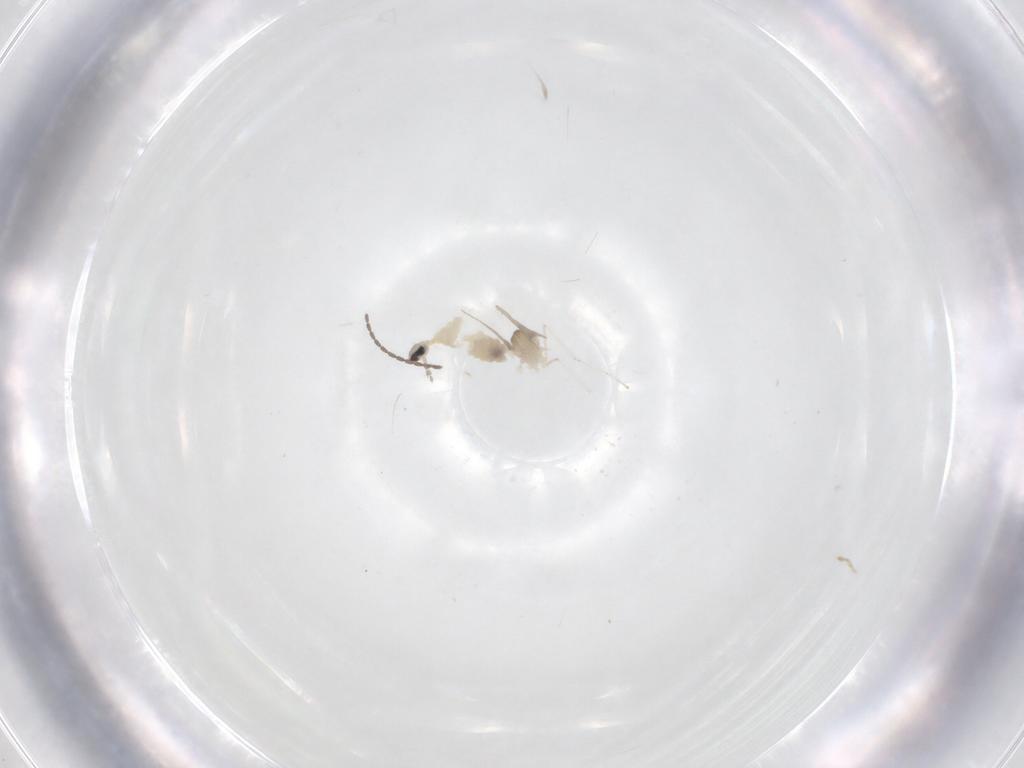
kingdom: Animalia
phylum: Arthropoda
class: Insecta
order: Diptera
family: Cecidomyiidae
